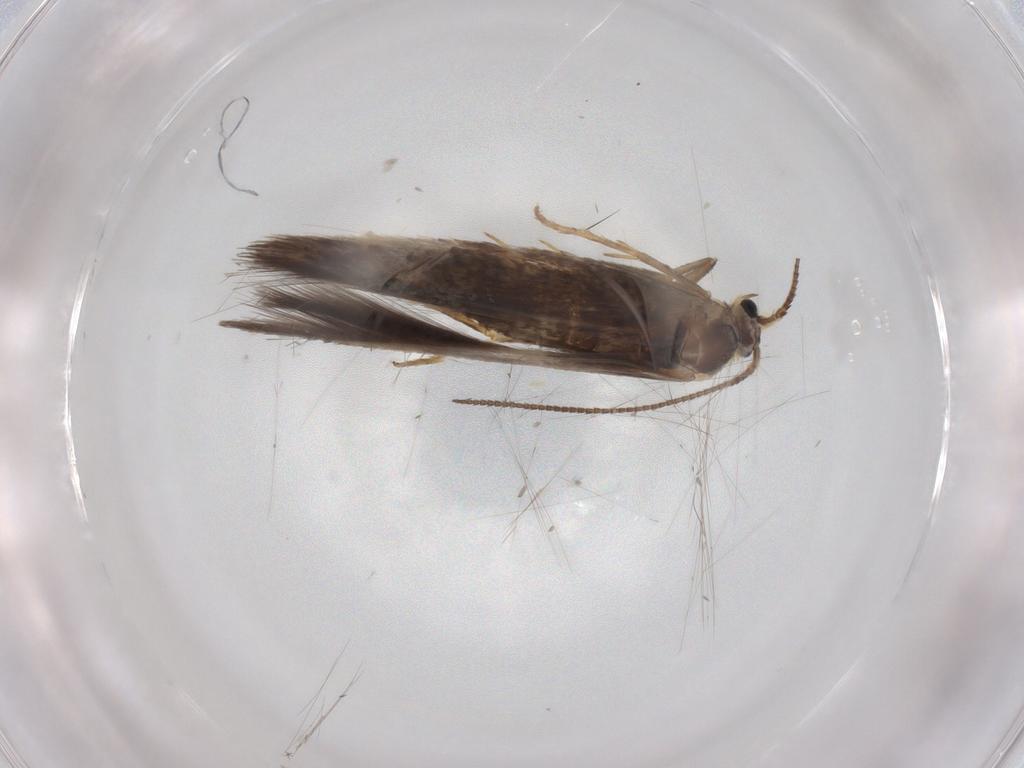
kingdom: Animalia
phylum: Arthropoda
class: Insecta
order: Lepidoptera
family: Nepticulidae
